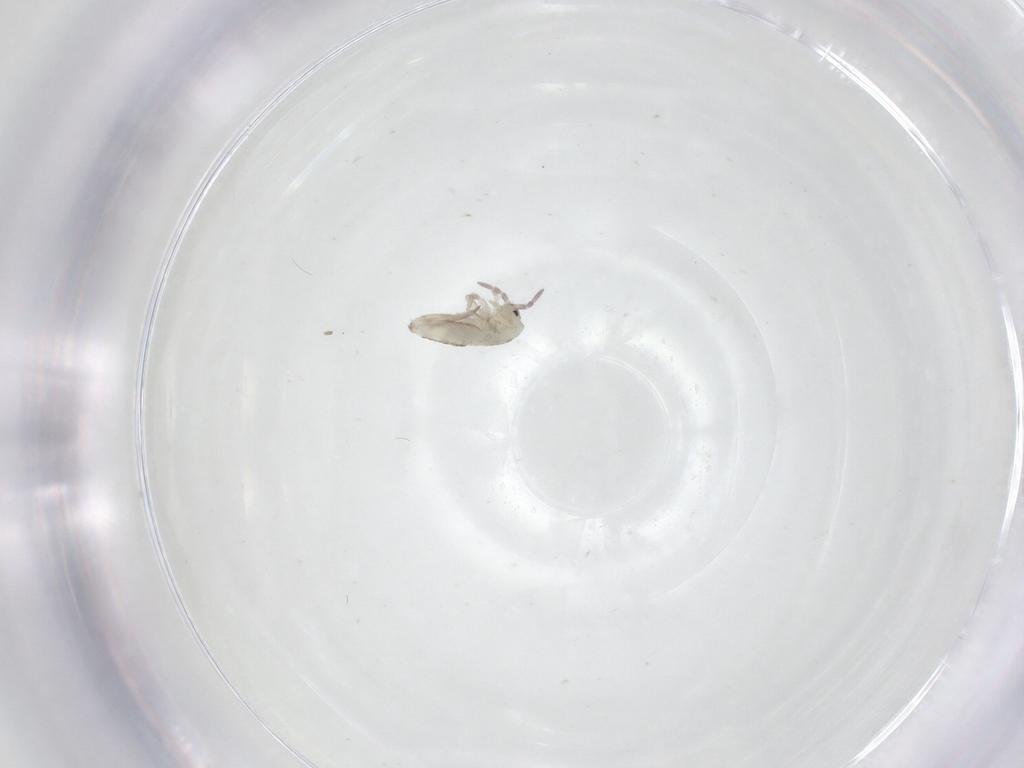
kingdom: Animalia
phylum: Arthropoda
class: Collembola
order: Entomobryomorpha
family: Entomobryidae
